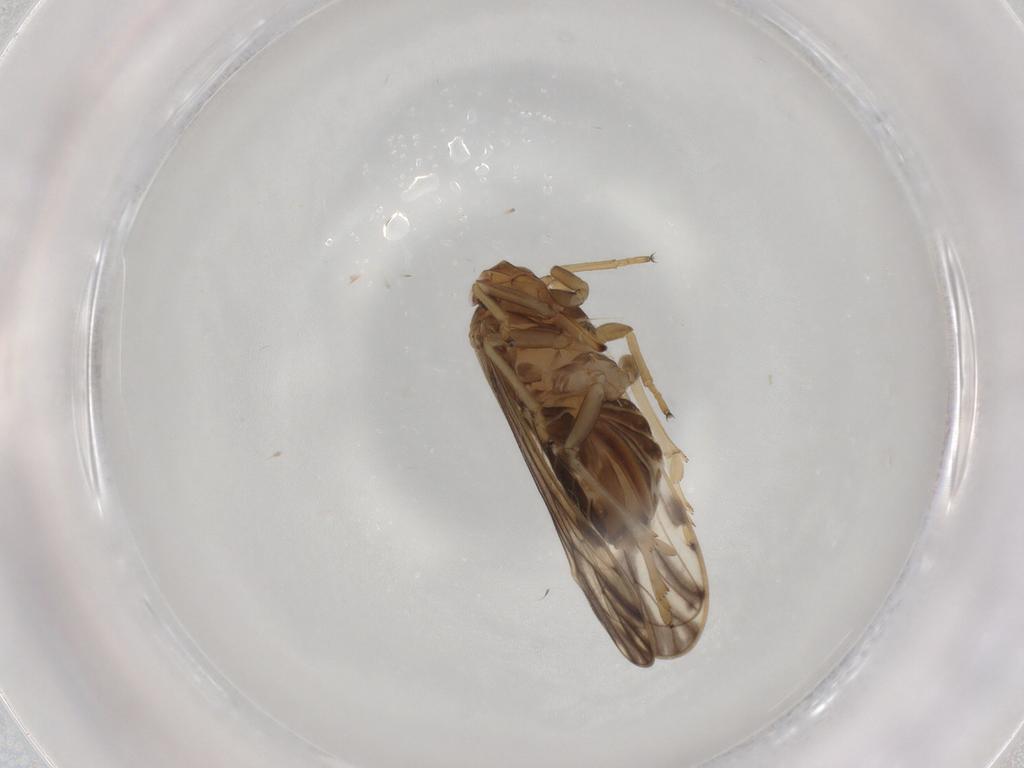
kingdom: Animalia
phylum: Arthropoda
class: Insecta
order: Hemiptera
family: Delphacidae
